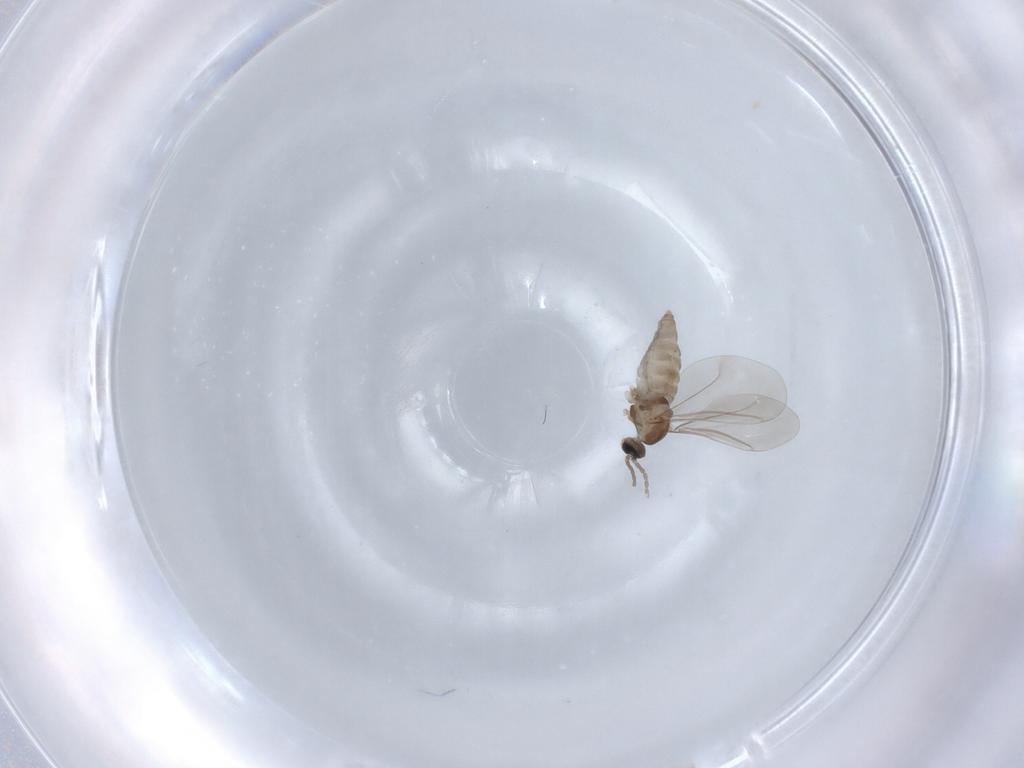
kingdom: Animalia
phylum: Arthropoda
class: Insecta
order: Diptera
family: Cecidomyiidae
